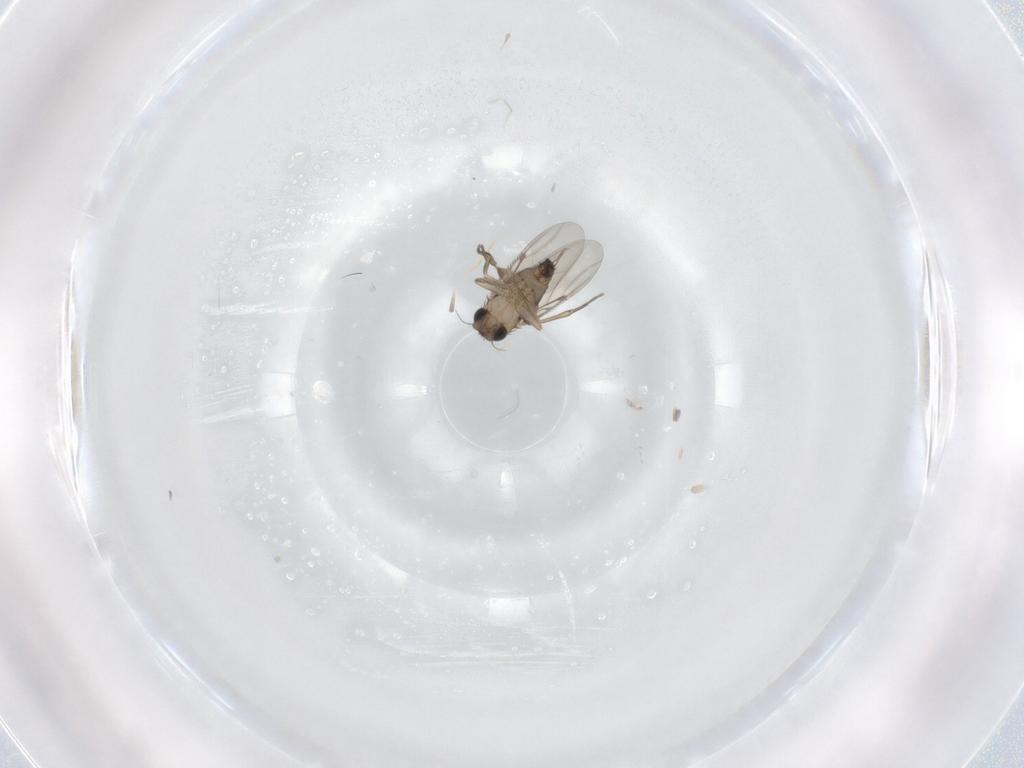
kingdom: Animalia
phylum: Arthropoda
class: Insecta
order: Diptera
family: Phoridae
